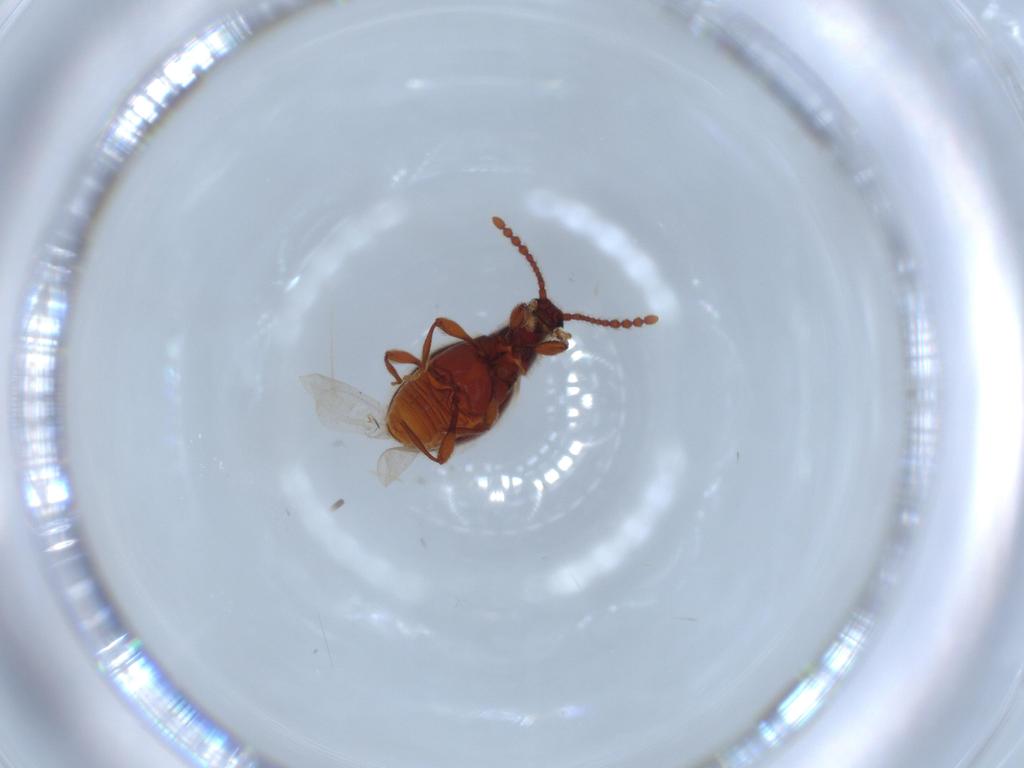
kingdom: Animalia
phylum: Arthropoda
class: Insecta
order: Coleoptera
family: Staphylinidae
